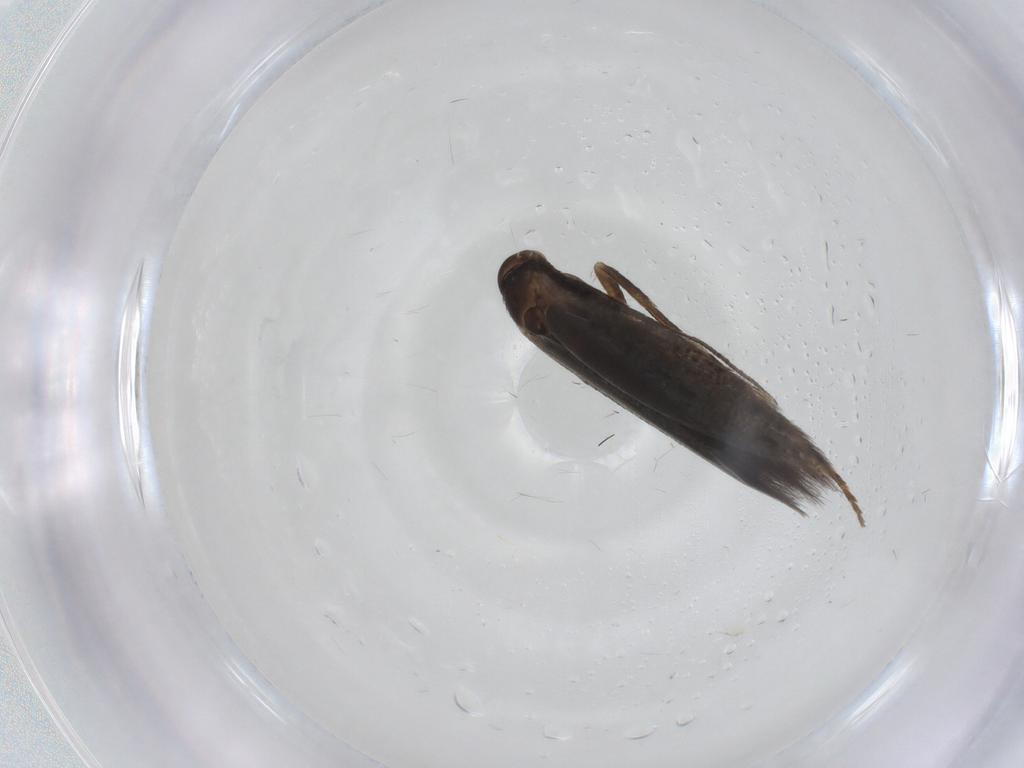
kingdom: Animalia
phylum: Arthropoda
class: Insecta
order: Lepidoptera
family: Elachistidae
